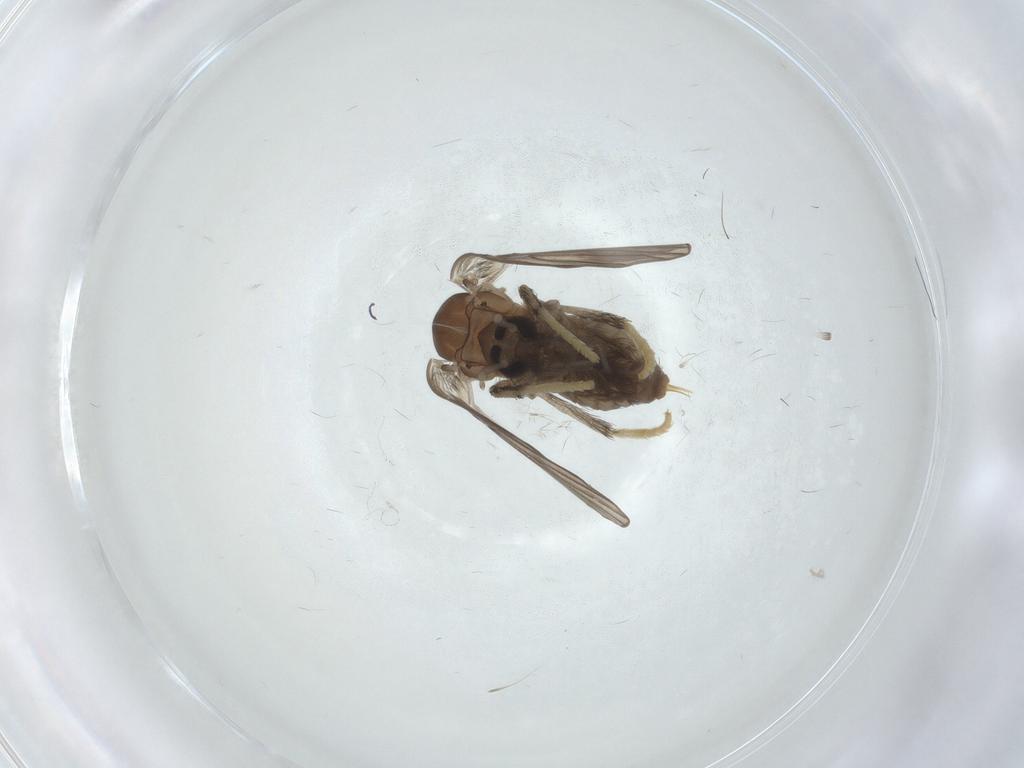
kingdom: Animalia
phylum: Arthropoda
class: Insecta
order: Diptera
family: Psychodidae
